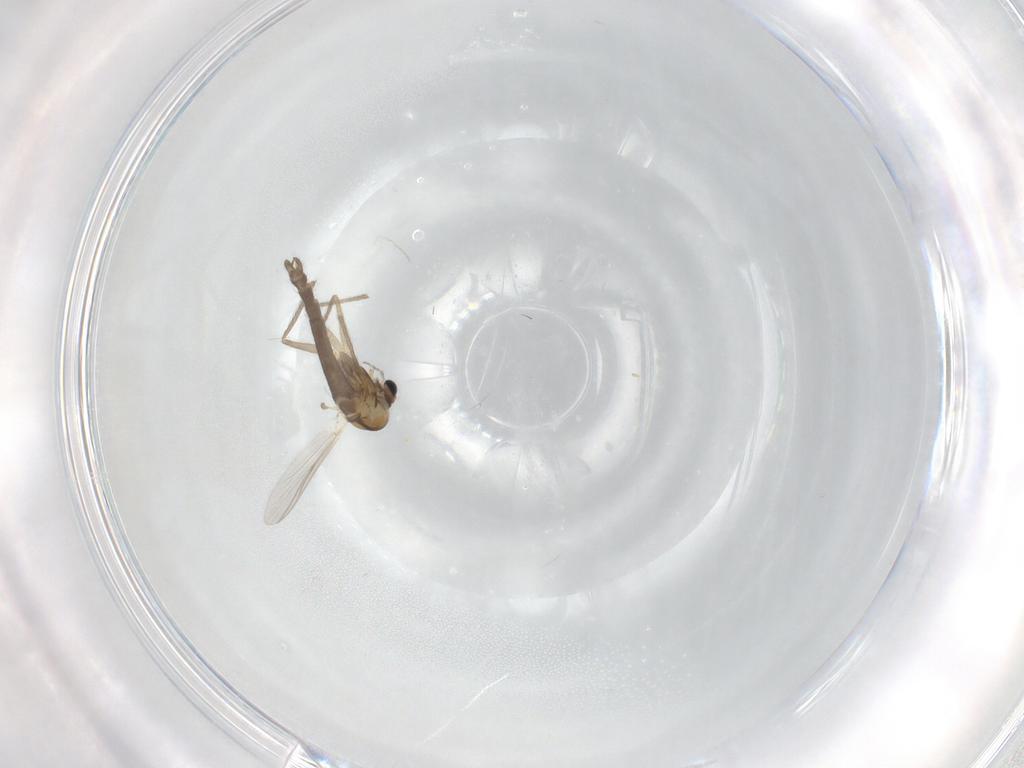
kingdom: Animalia
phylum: Arthropoda
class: Insecta
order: Diptera
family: Chironomidae
